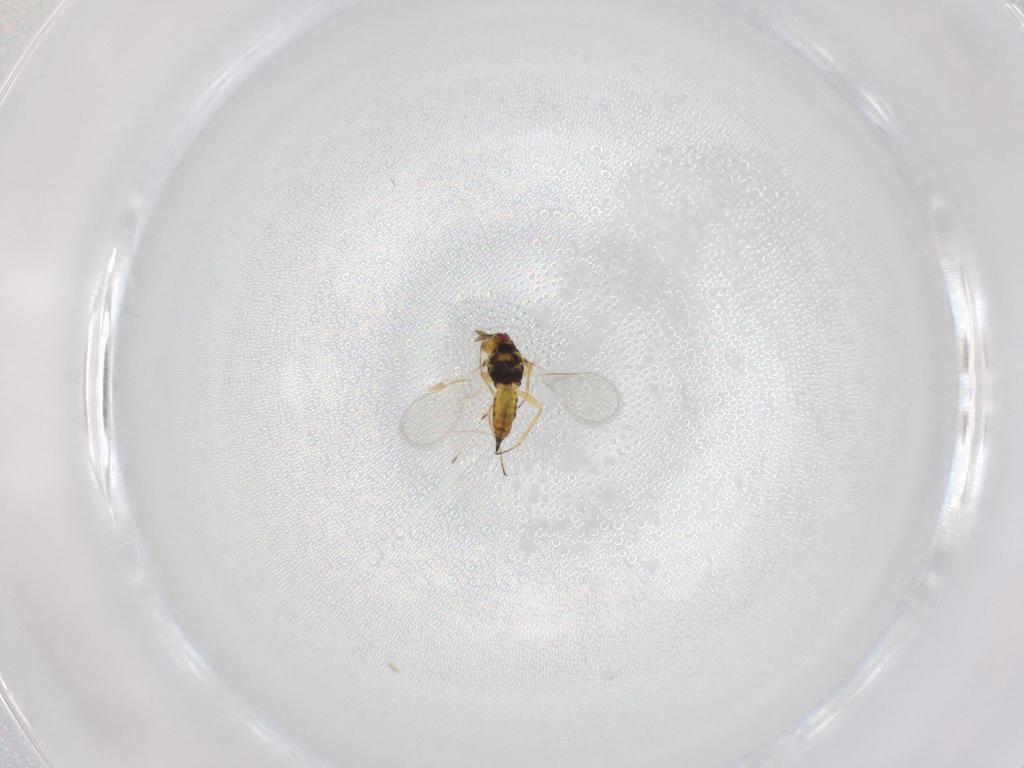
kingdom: Animalia
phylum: Arthropoda
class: Insecta
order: Hymenoptera
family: Eulophidae
